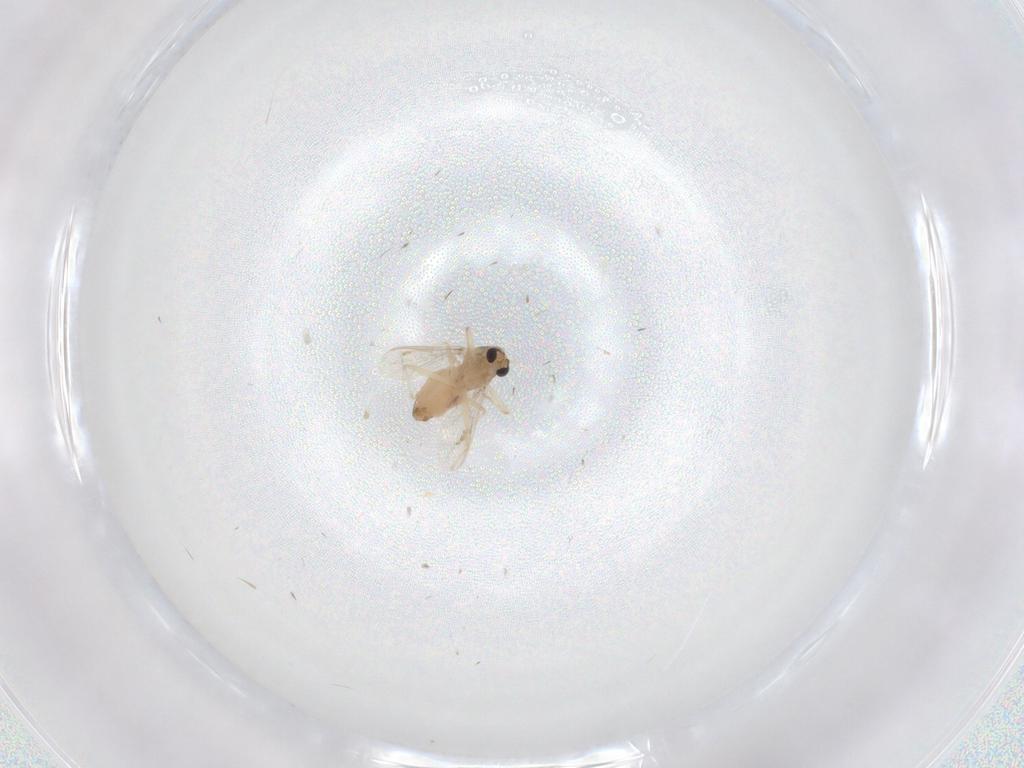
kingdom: Animalia
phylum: Arthropoda
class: Insecta
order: Diptera
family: Chironomidae
